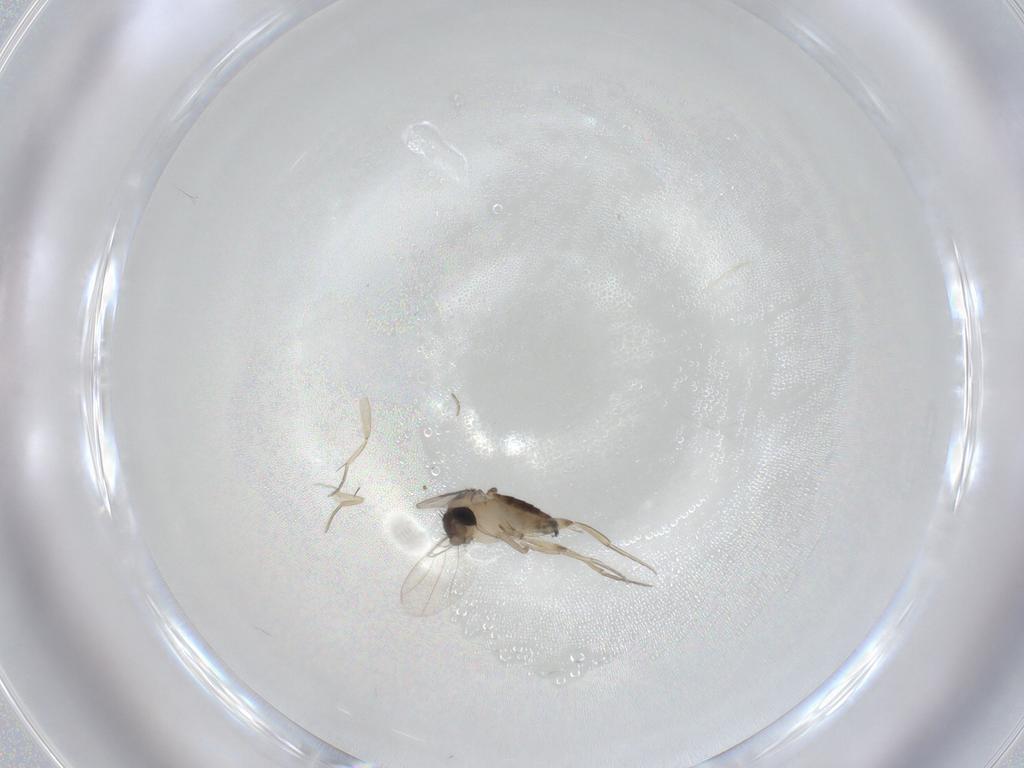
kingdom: Animalia
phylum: Arthropoda
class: Insecta
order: Diptera
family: Phoridae
